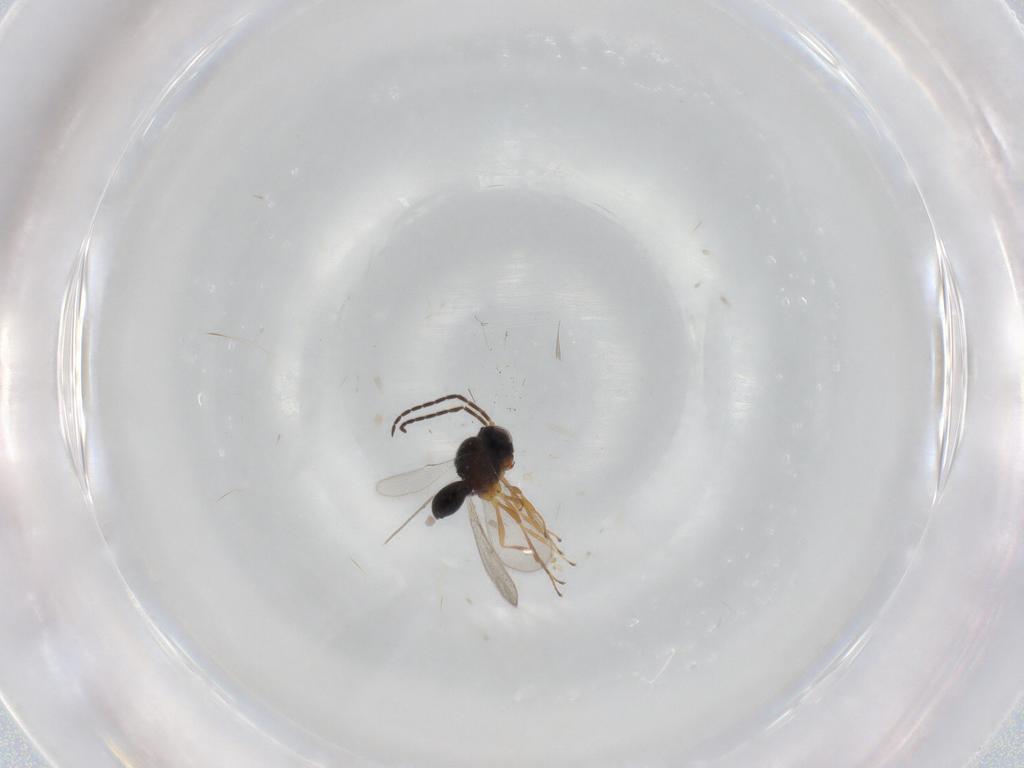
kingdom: Animalia
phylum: Arthropoda
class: Insecta
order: Hymenoptera
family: Scelionidae
